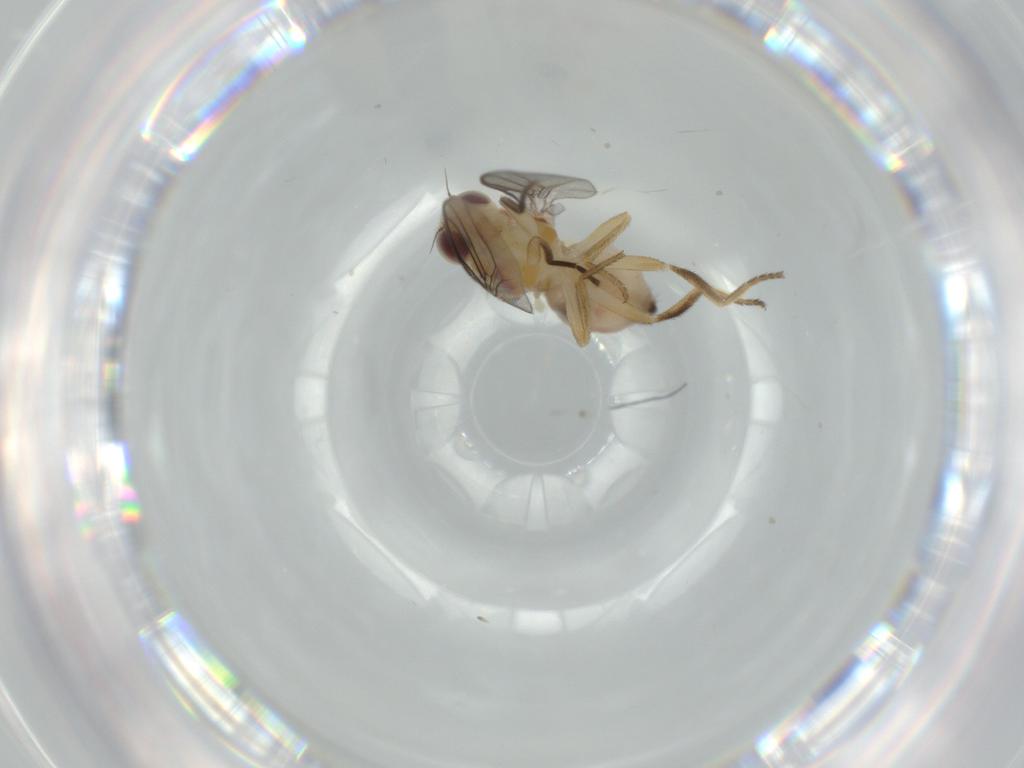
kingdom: Animalia
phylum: Arthropoda
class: Insecta
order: Diptera
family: Chloropidae
